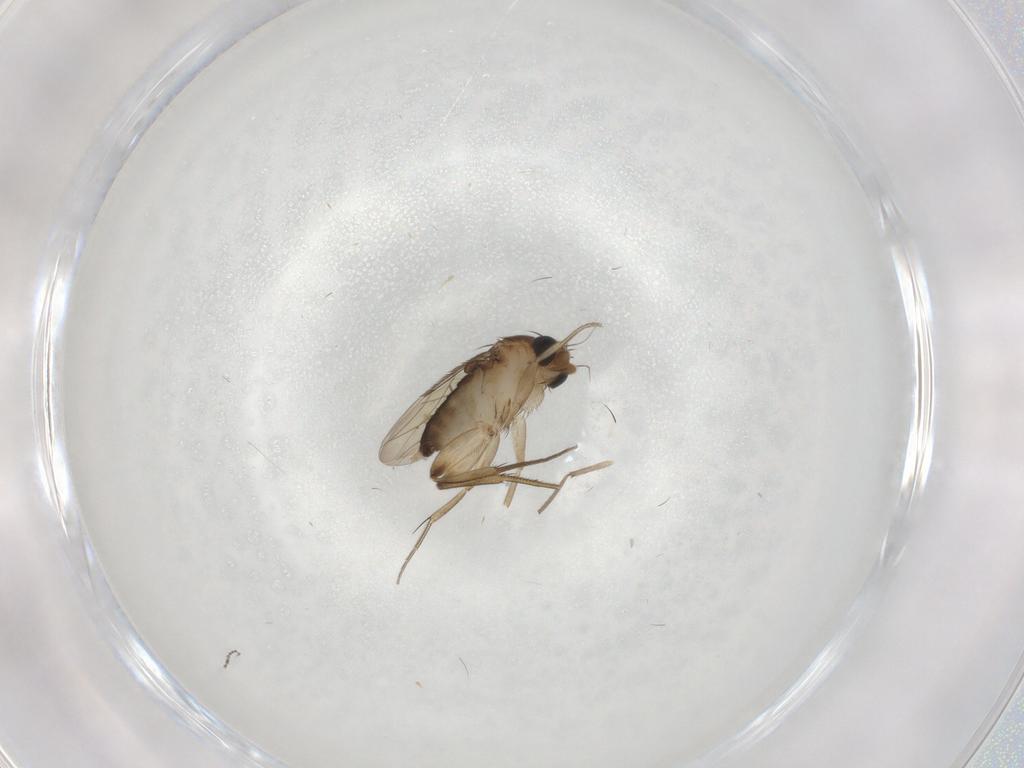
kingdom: Animalia
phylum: Arthropoda
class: Insecta
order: Diptera
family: Phoridae
